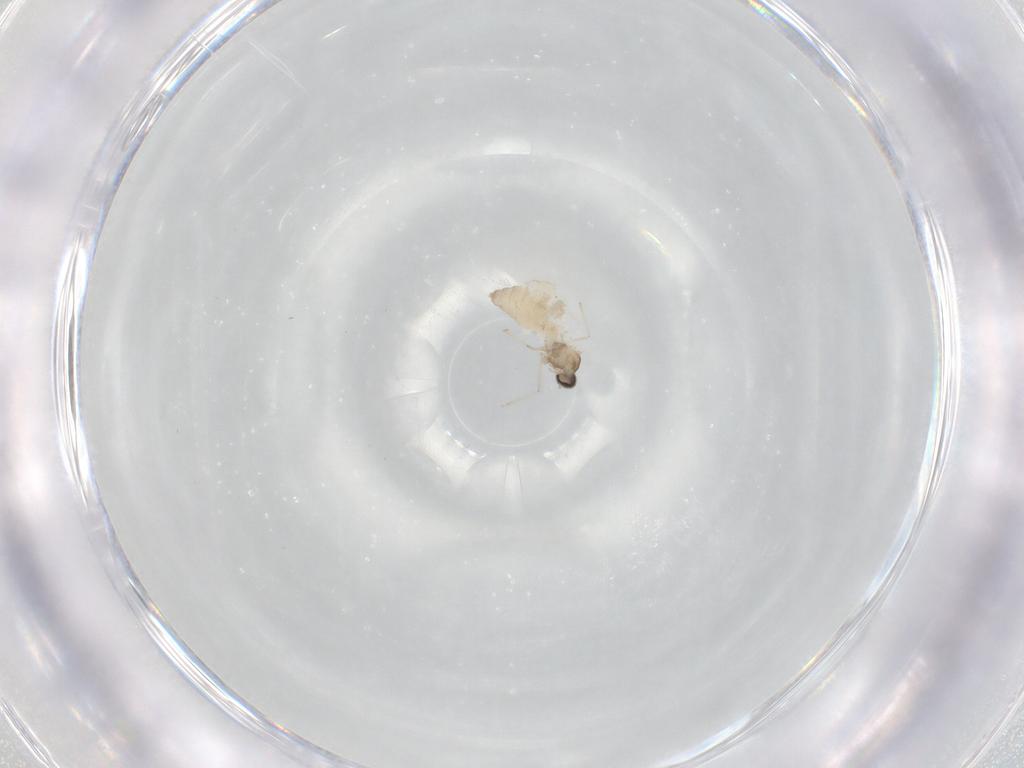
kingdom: Animalia
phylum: Arthropoda
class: Insecta
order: Diptera
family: Cecidomyiidae
